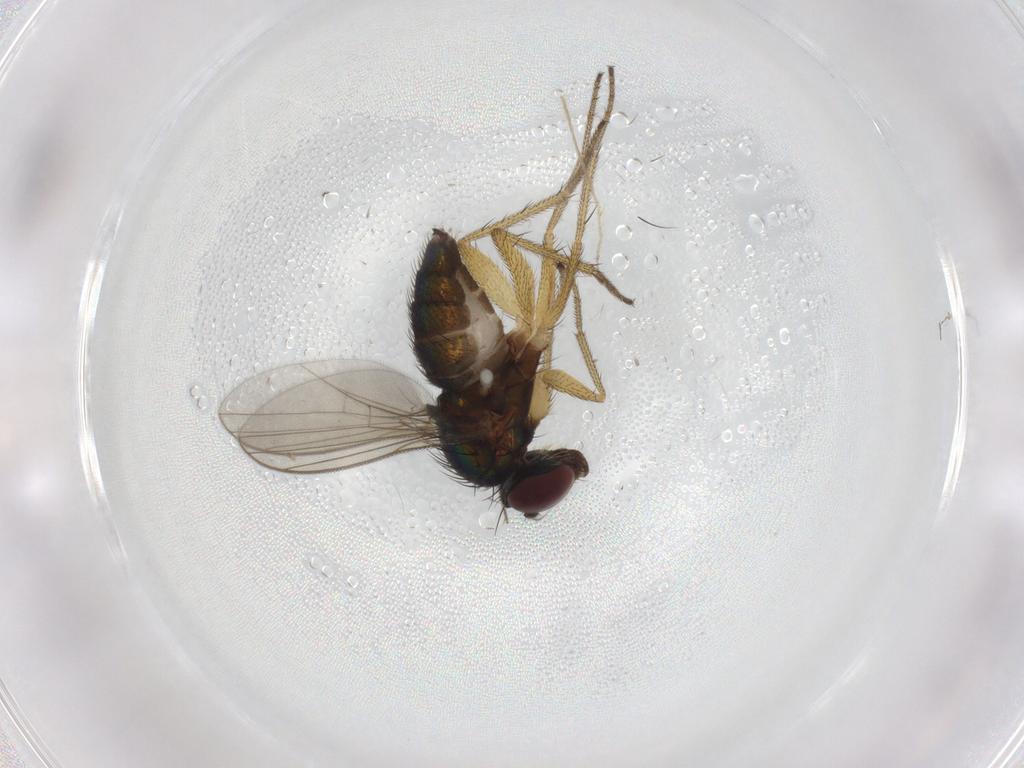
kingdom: Animalia
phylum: Arthropoda
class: Insecta
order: Diptera
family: Dolichopodidae
